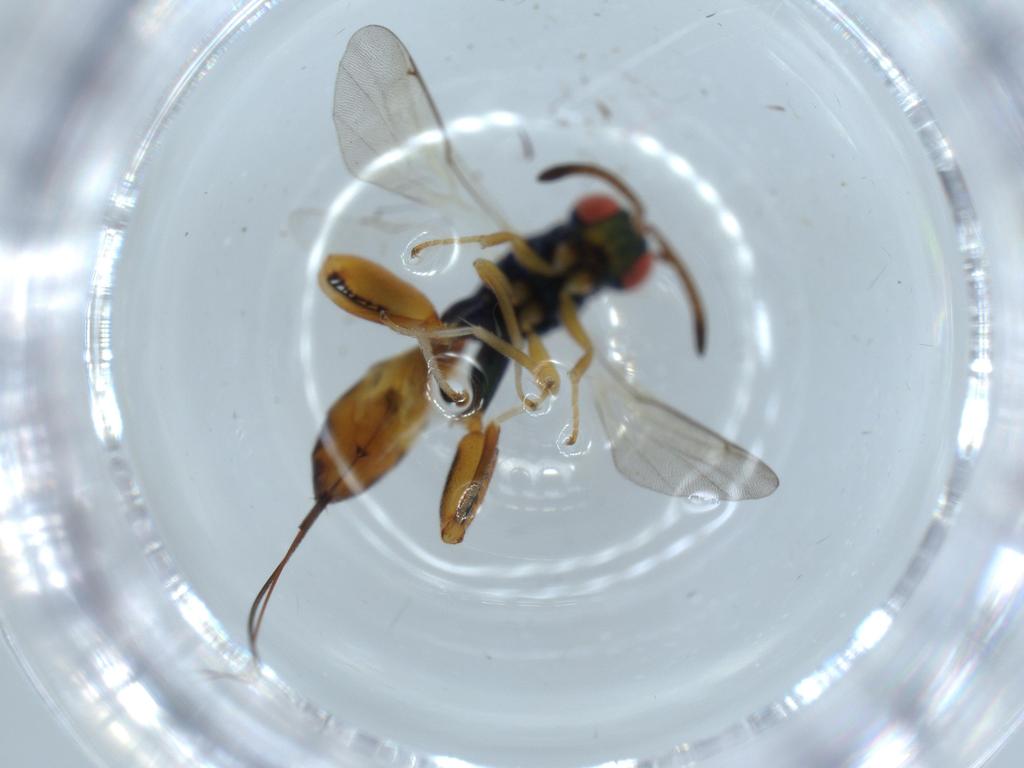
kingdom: Animalia
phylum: Arthropoda
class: Insecta
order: Hymenoptera
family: Torymidae
